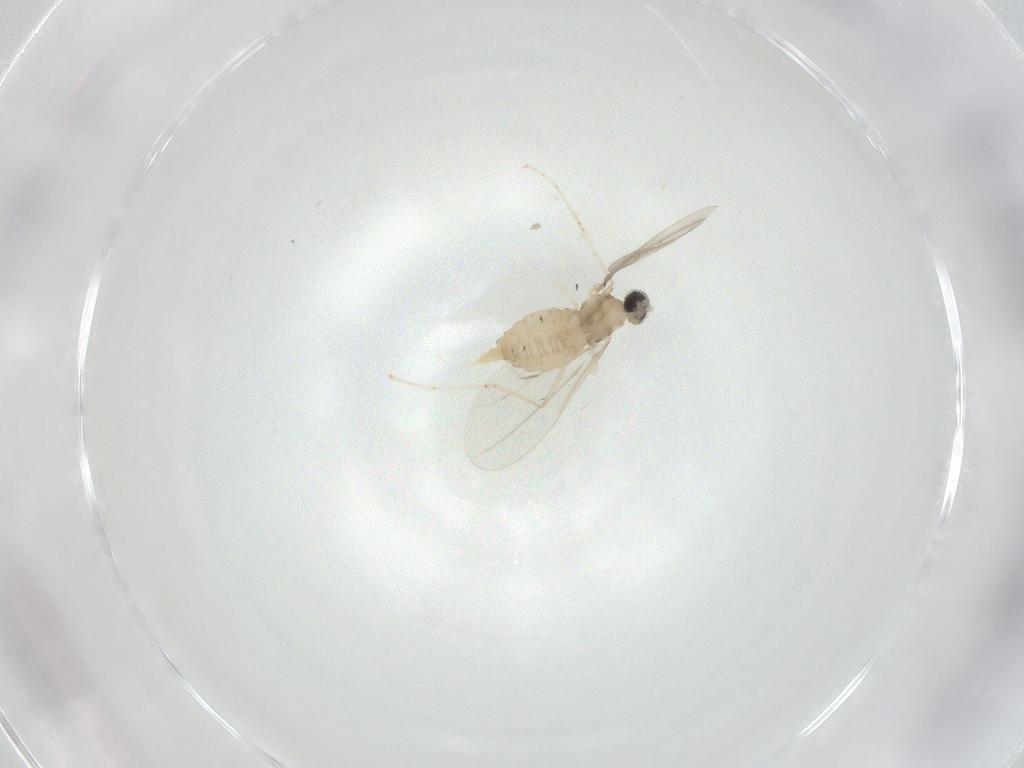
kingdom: Animalia
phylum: Arthropoda
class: Insecta
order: Diptera
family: Cecidomyiidae
